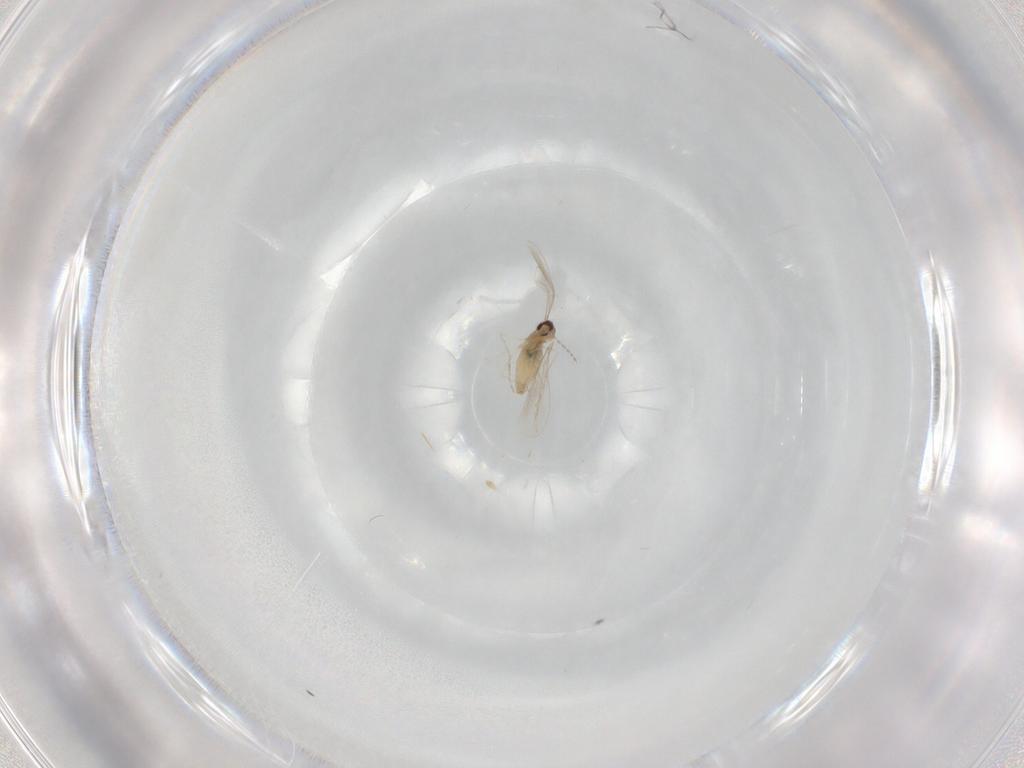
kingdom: Animalia
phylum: Arthropoda
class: Insecta
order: Diptera
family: Cecidomyiidae
